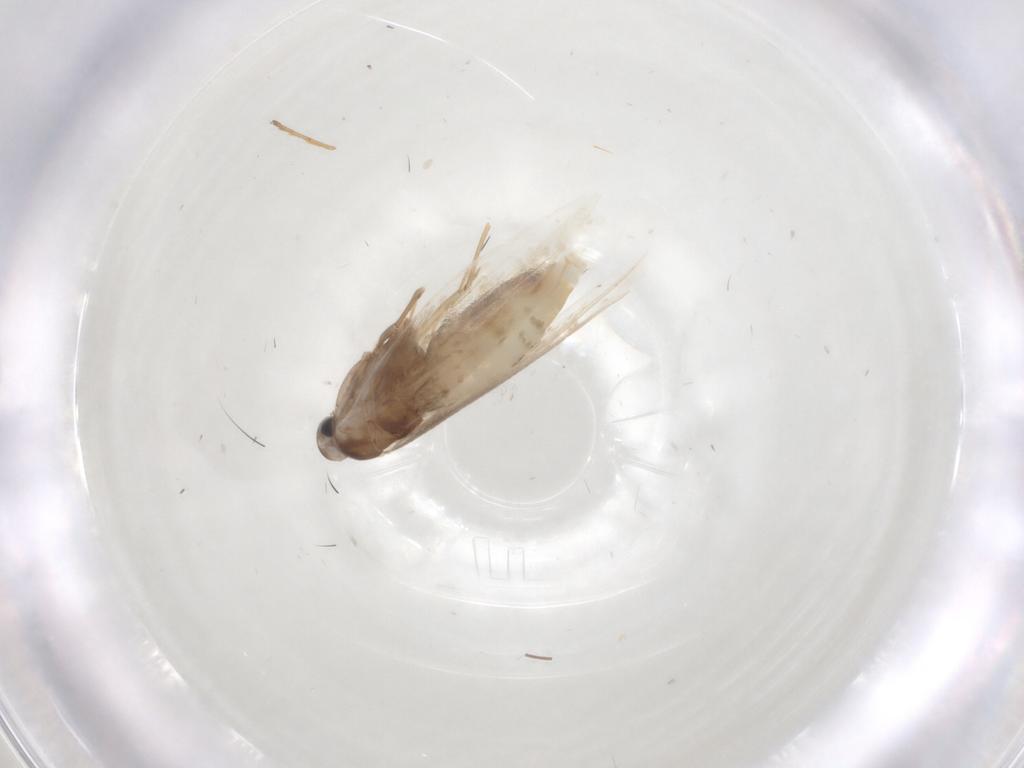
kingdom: Animalia
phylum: Arthropoda
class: Insecta
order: Lepidoptera
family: Gracillariidae
